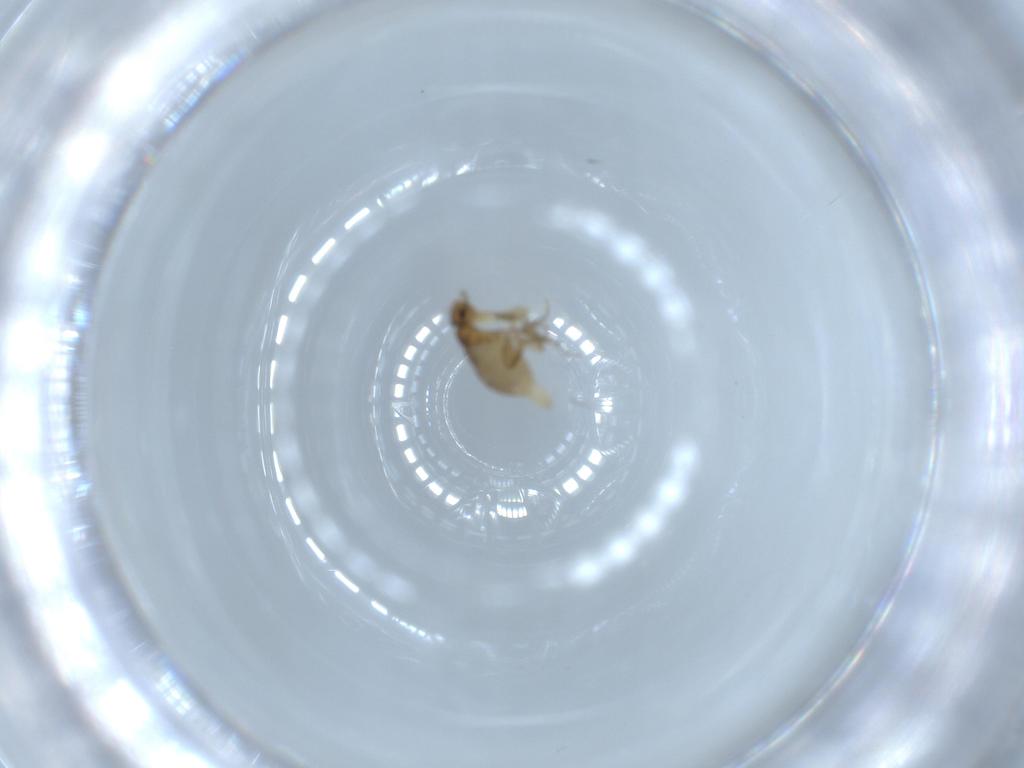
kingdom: Animalia
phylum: Arthropoda
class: Insecta
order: Diptera
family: Phoridae
